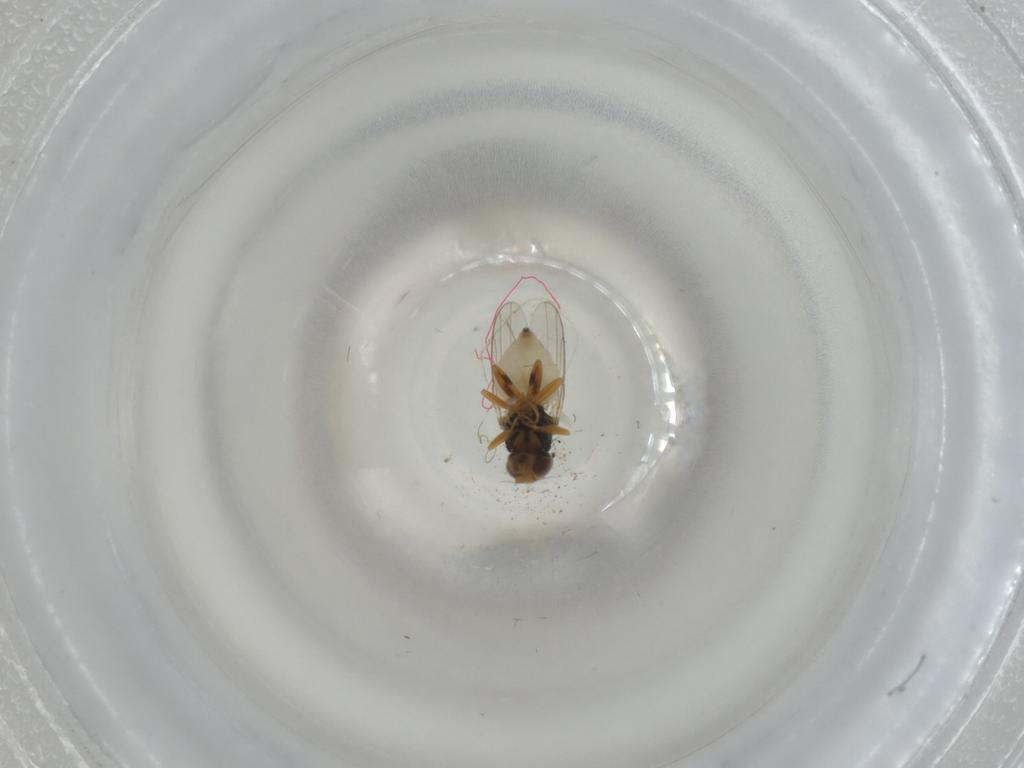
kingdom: Animalia
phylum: Arthropoda
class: Insecta
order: Diptera
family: Chloropidae
